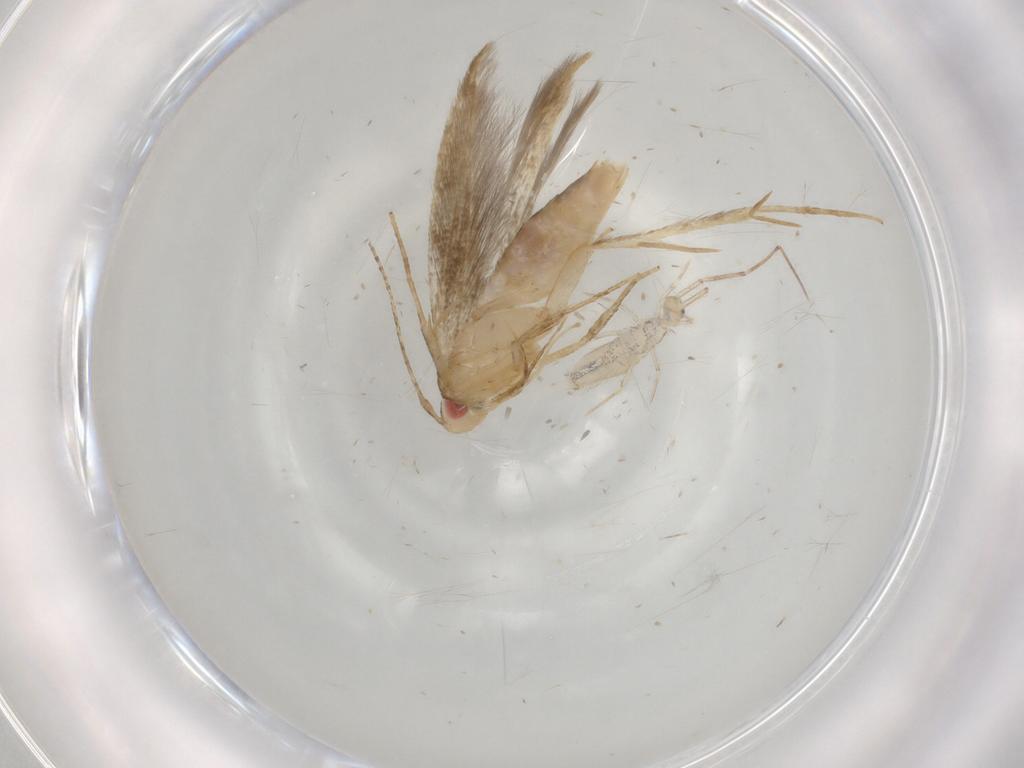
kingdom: Animalia
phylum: Arthropoda
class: Insecta
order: Lepidoptera
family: Gelechiidae
